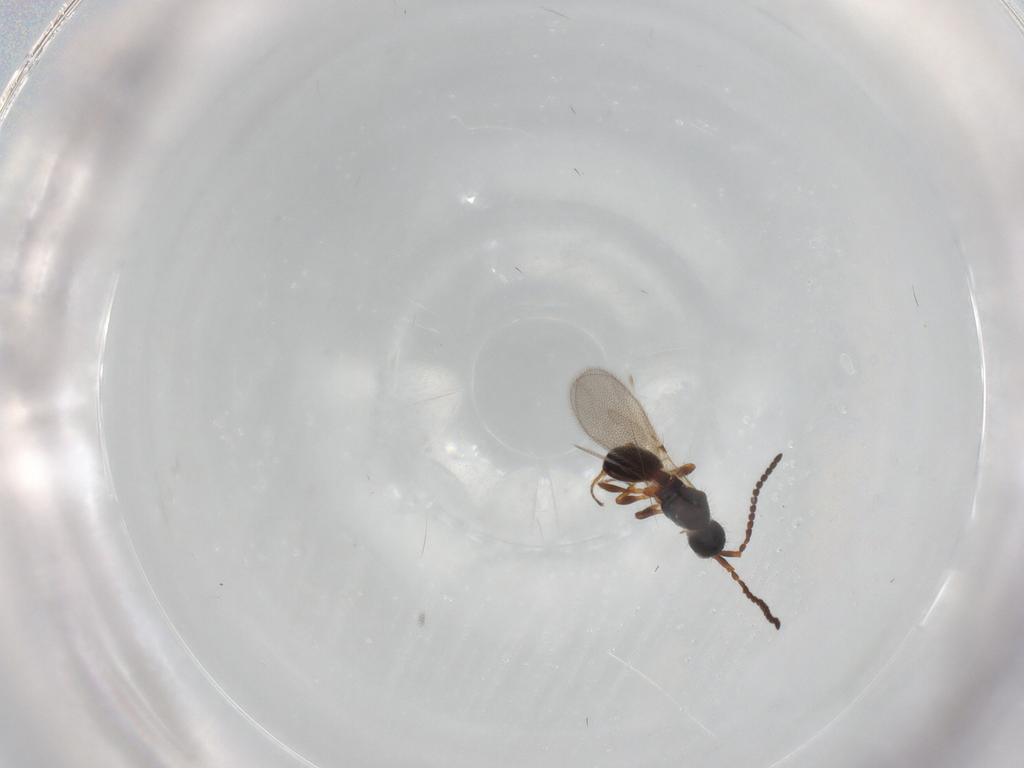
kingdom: Animalia
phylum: Arthropoda
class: Insecta
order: Hymenoptera
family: Diapriidae
